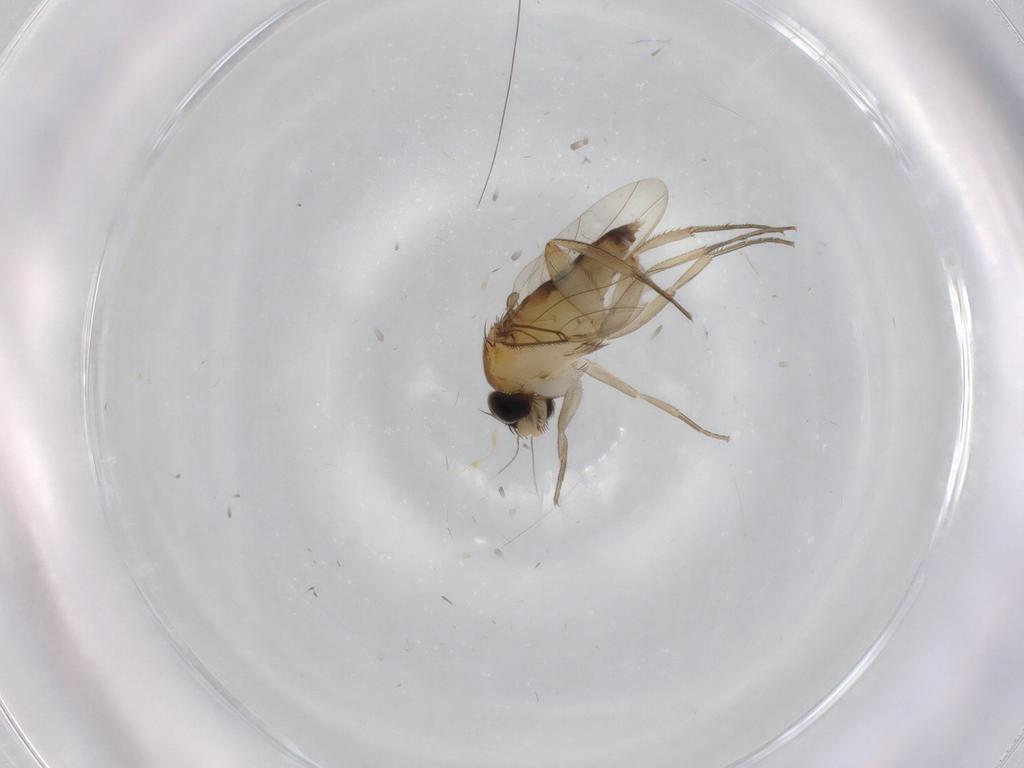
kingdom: Animalia
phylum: Arthropoda
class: Insecta
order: Diptera
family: Phoridae
